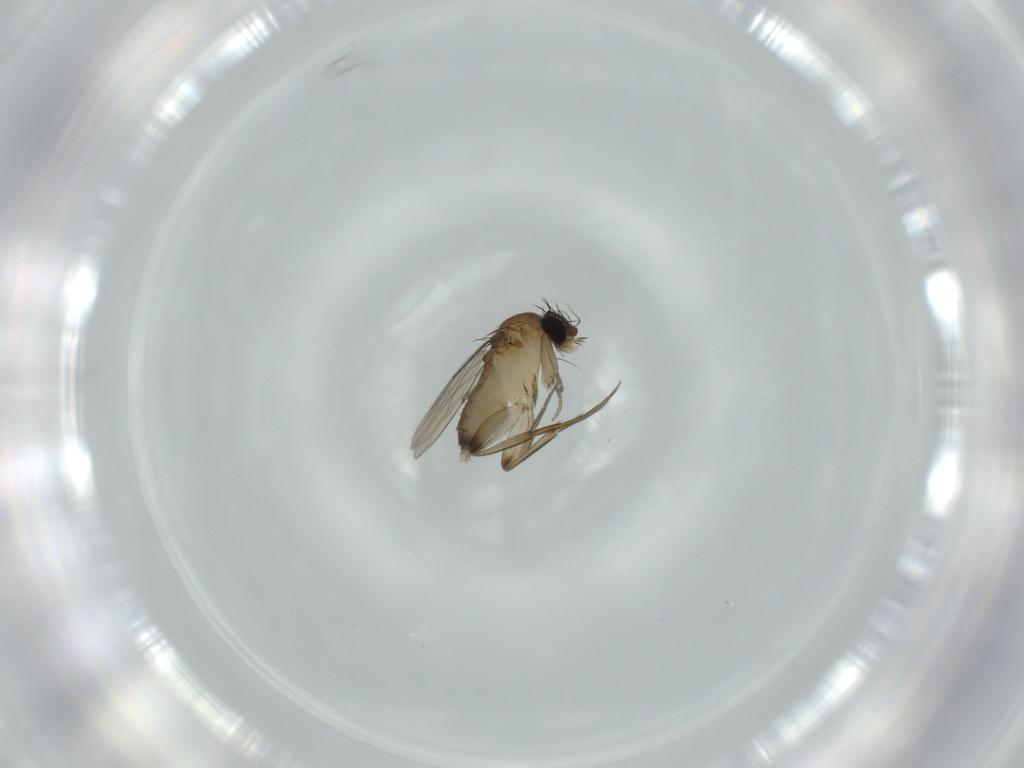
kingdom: Animalia
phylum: Arthropoda
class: Insecta
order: Diptera
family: Phoridae
